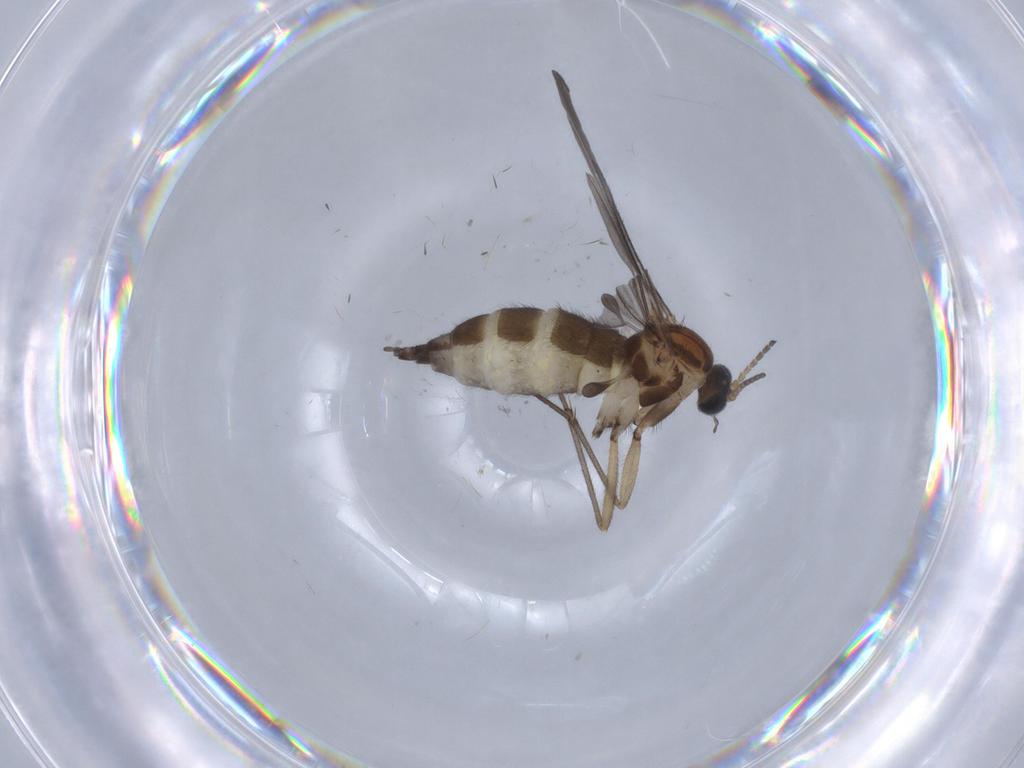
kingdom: Animalia
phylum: Arthropoda
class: Insecta
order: Diptera
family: Sciaridae
